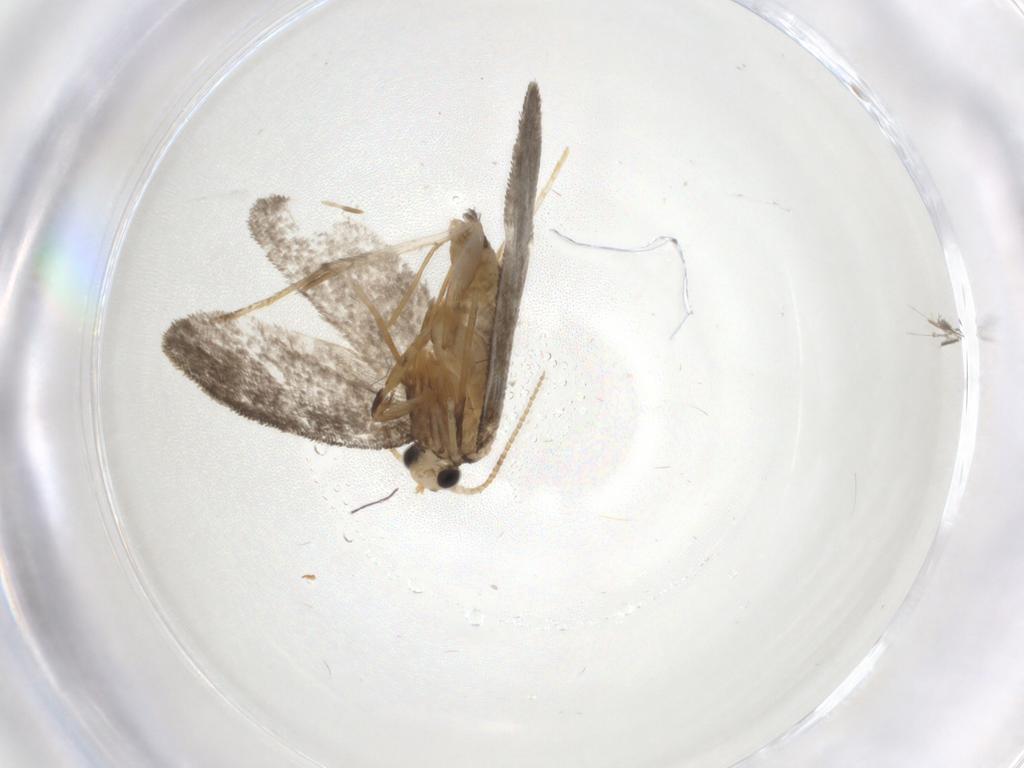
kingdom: Animalia
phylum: Arthropoda
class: Insecta
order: Lepidoptera
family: Psychidae
